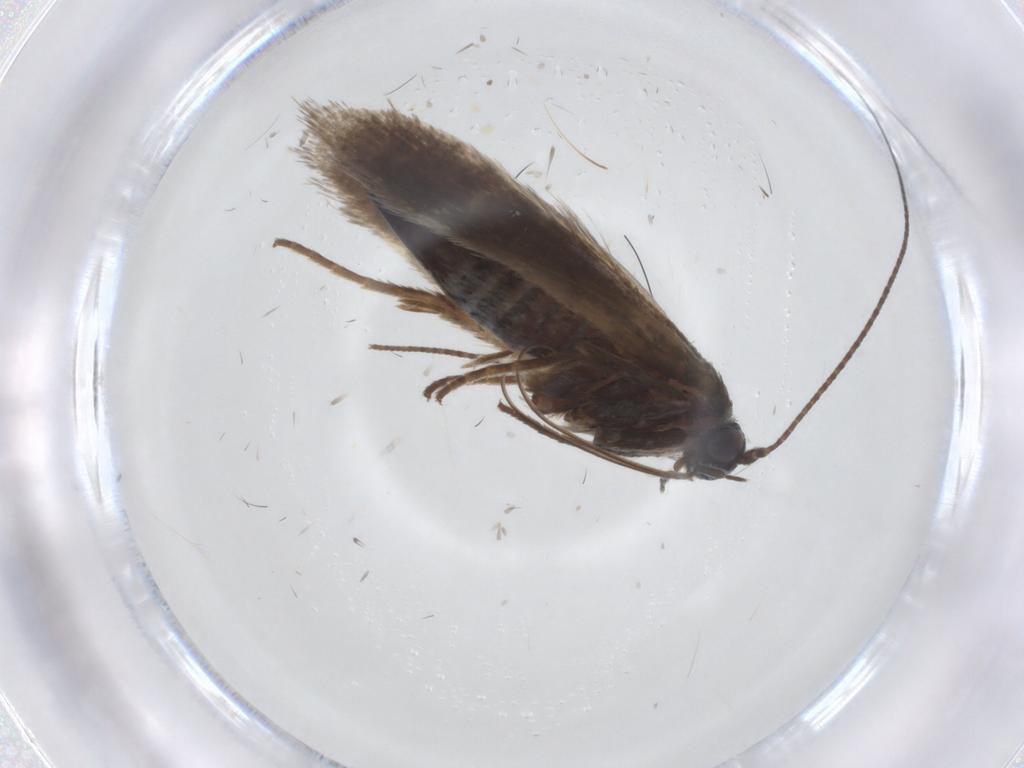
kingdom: Animalia
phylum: Arthropoda
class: Insecta
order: Lepidoptera
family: Adelidae
